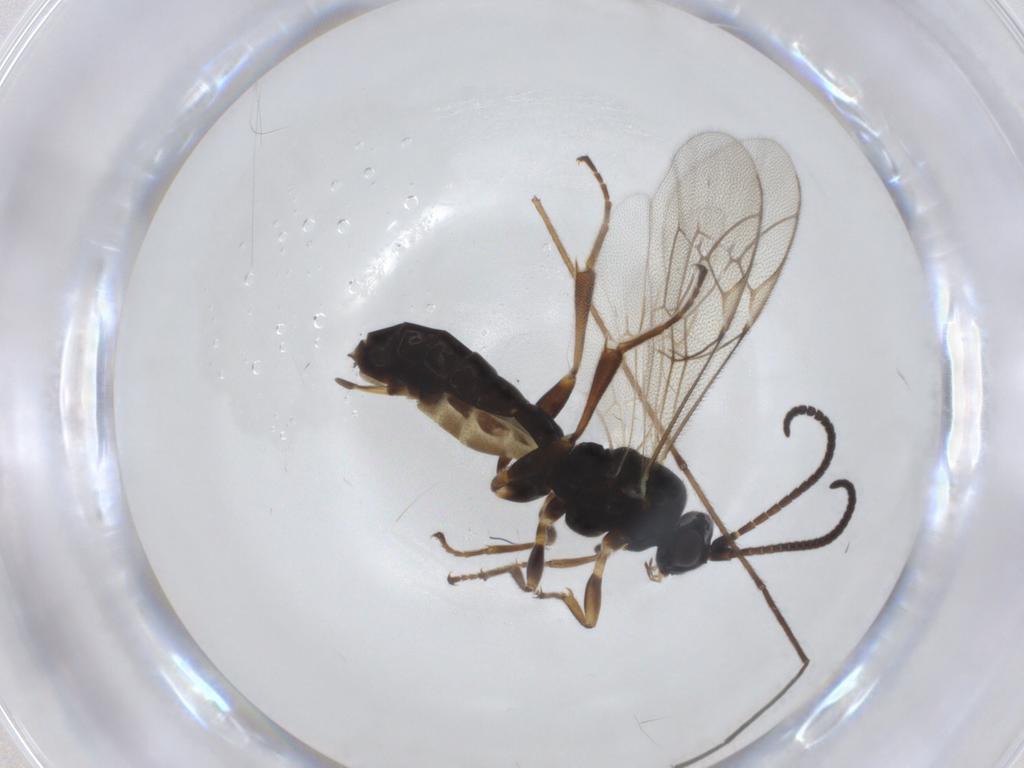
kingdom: Animalia
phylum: Arthropoda
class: Insecta
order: Hymenoptera
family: Ichneumonidae
